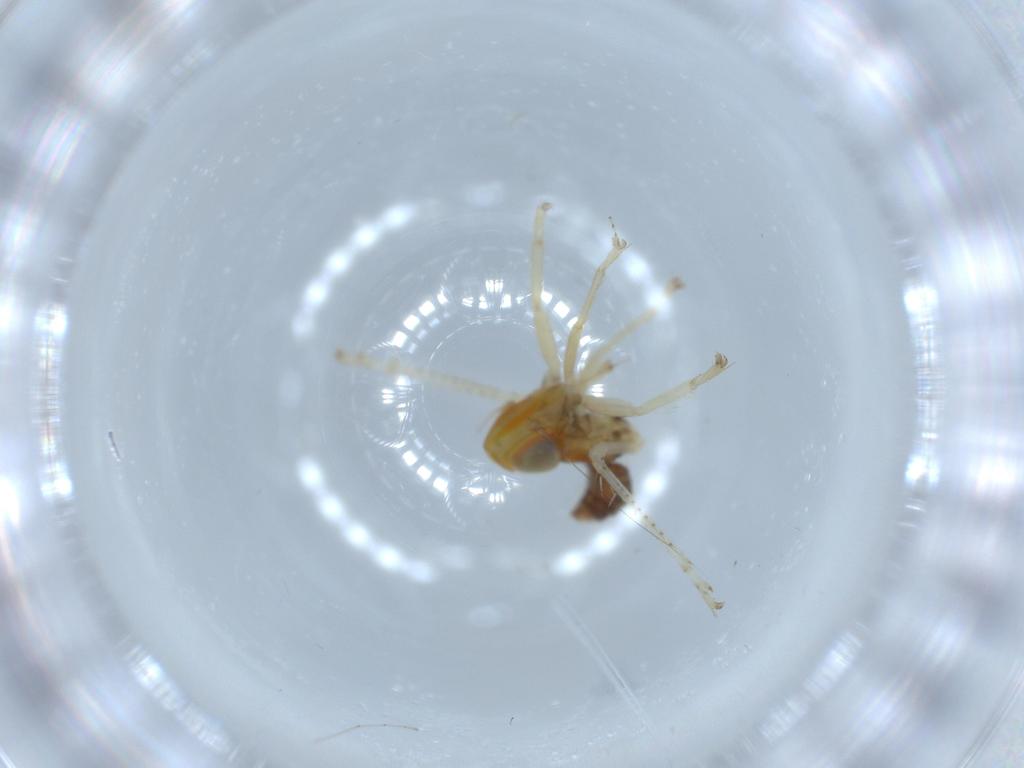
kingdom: Animalia
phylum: Arthropoda
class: Insecta
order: Hemiptera
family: Cicadellidae
